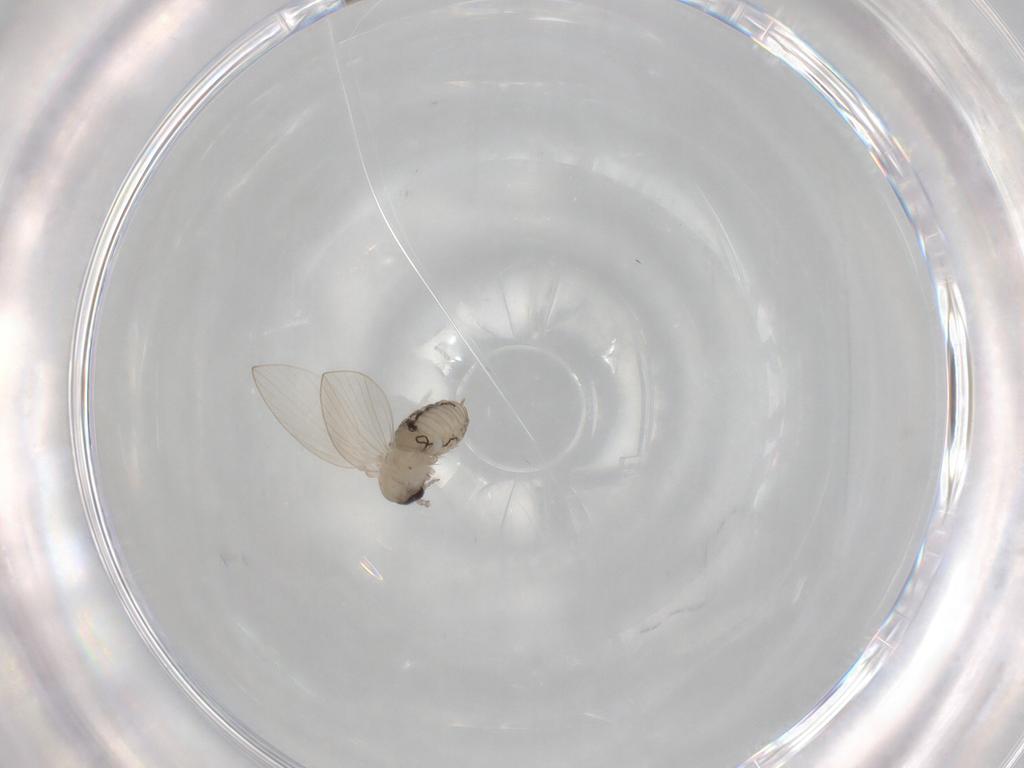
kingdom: Animalia
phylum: Arthropoda
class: Insecta
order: Diptera
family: Psychodidae
